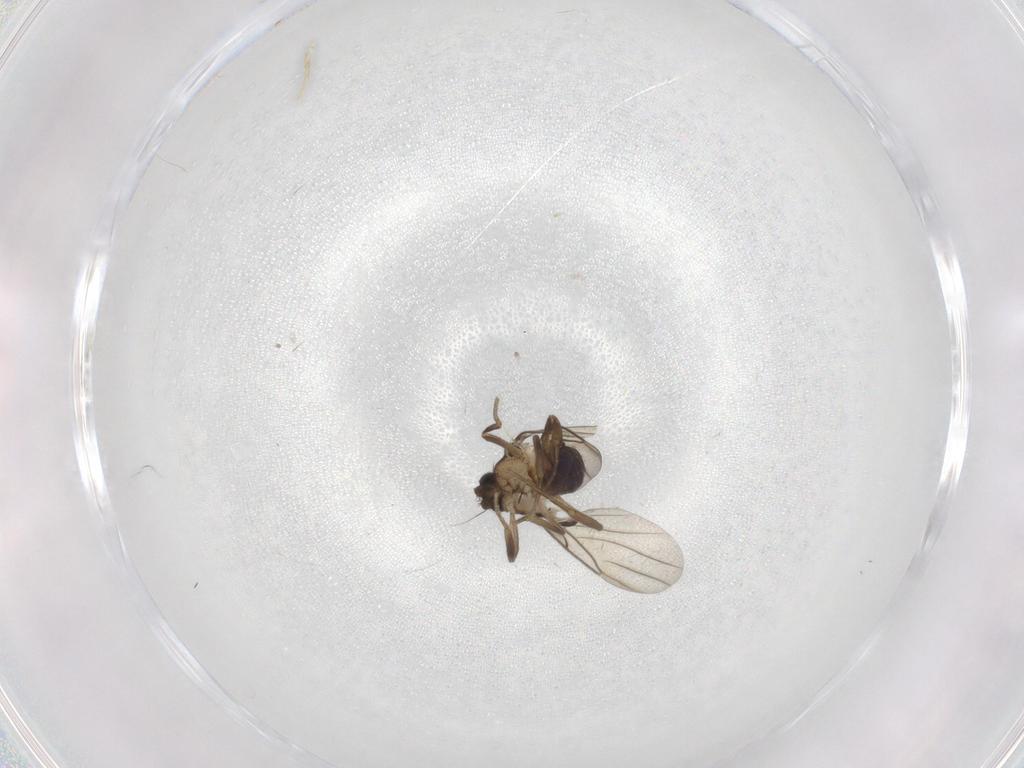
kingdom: Animalia
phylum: Arthropoda
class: Insecta
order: Diptera
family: Phoridae
